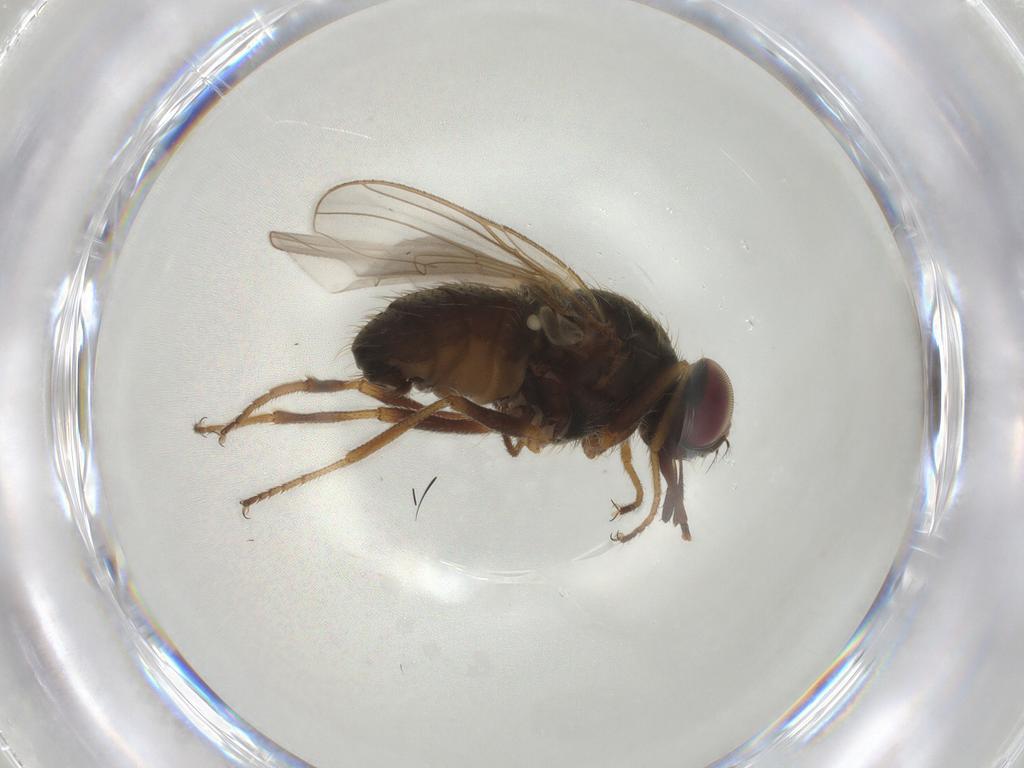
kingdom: Animalia
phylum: Arthropoda
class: Insecta
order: Diptera
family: Muscidae
